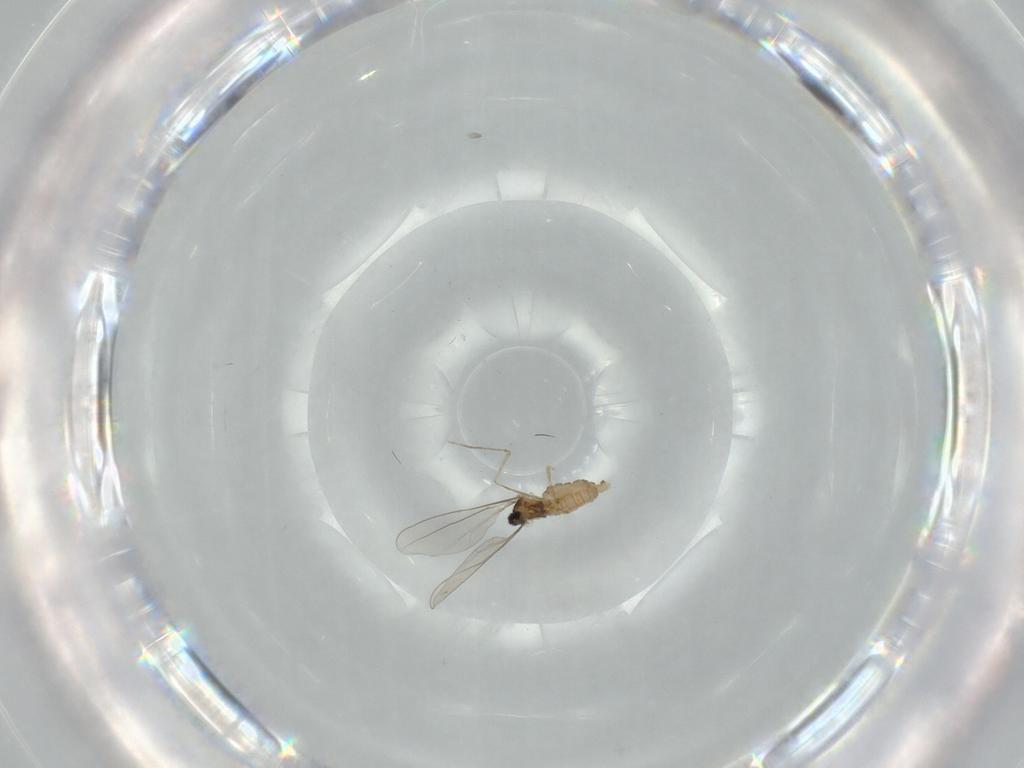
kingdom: Animalia
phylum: Arthropoda
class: Insecta
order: Diptera
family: Cecidomyiidae
